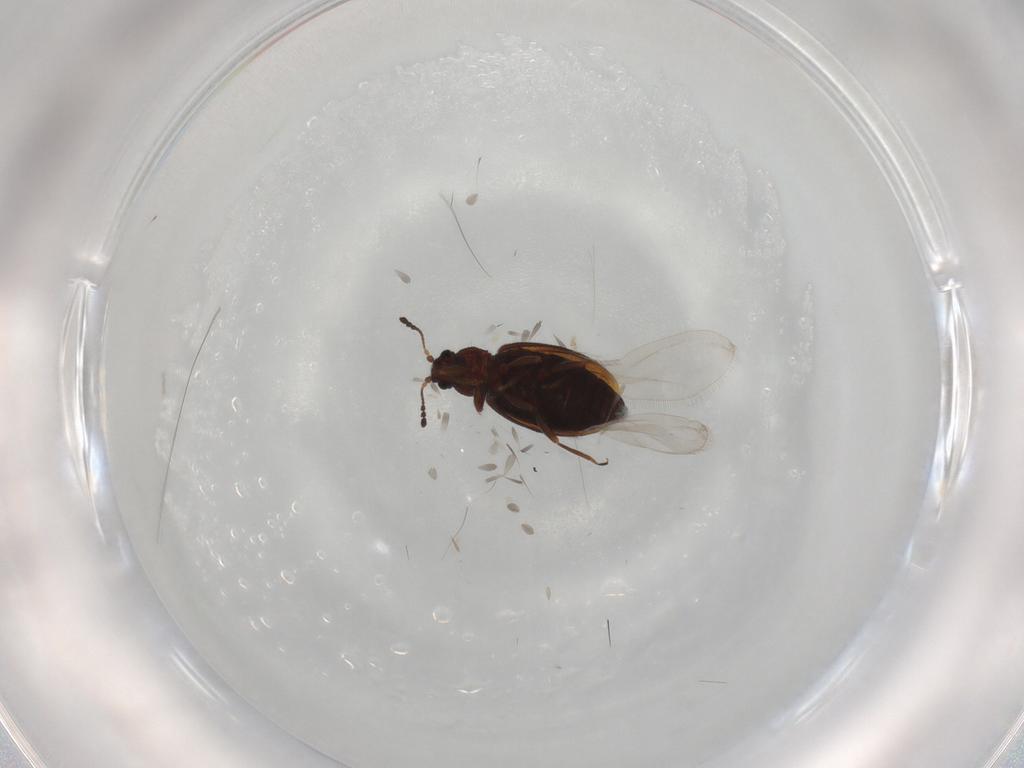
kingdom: Animalia
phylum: Arthropoda
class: Insecta
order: Coleoptera
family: Latridiidae
